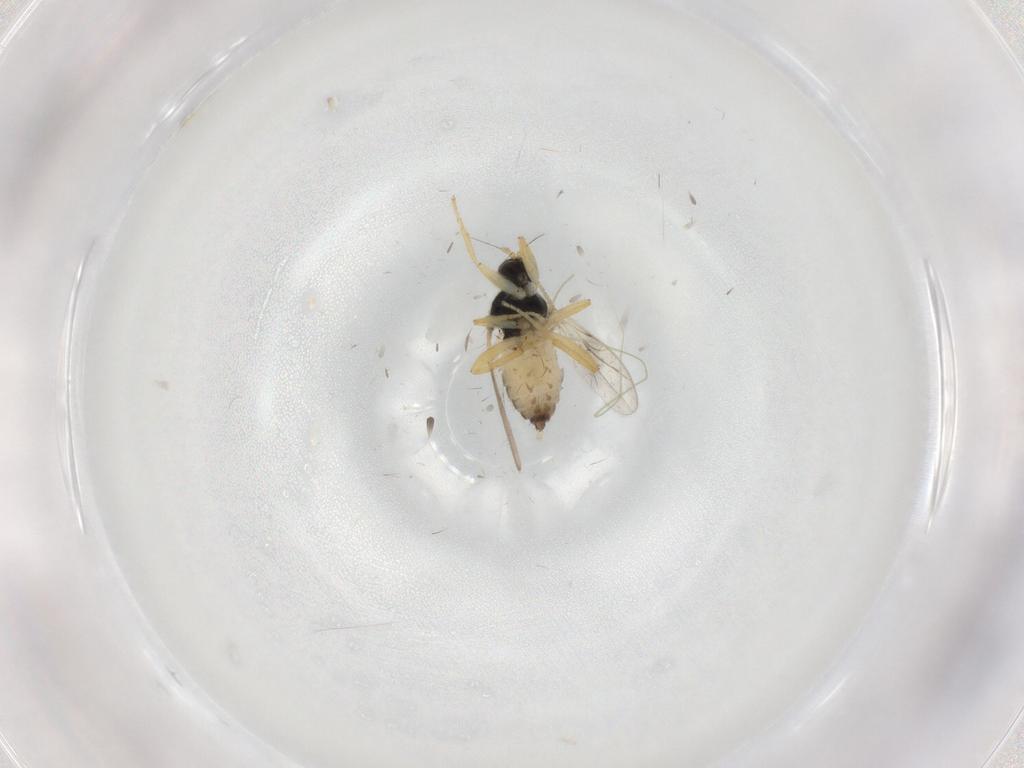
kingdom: Animalia
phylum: Arthropoda
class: Insecta
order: Diptera
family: Hybotidae
